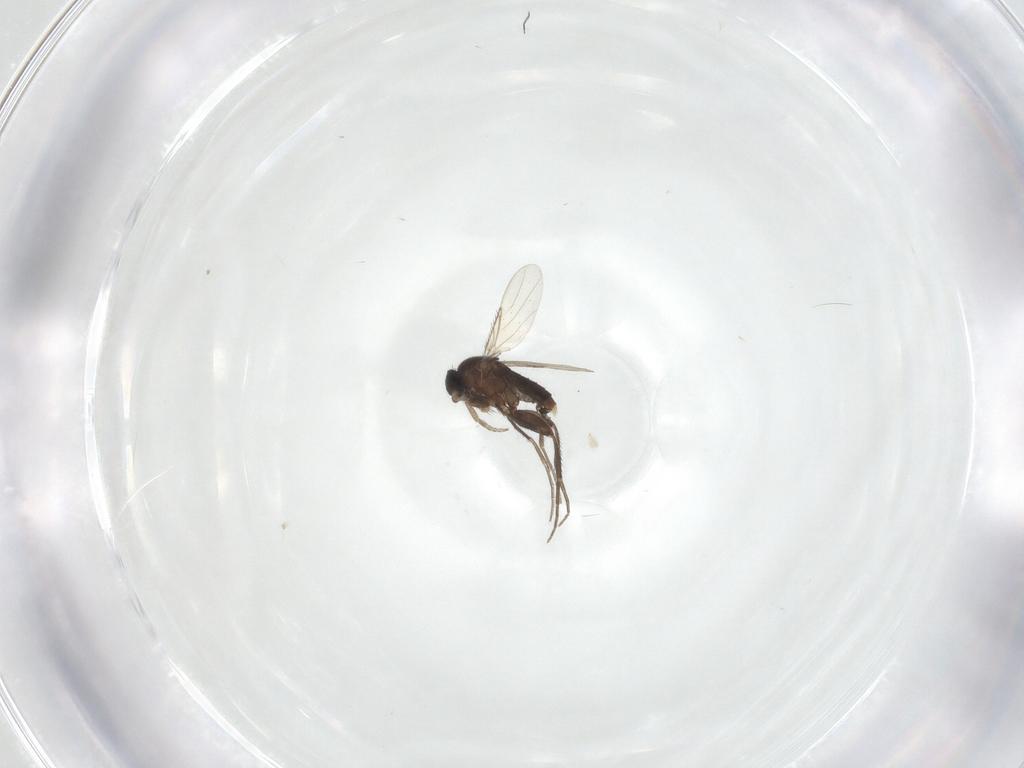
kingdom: Animalia
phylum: Arthropoda
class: Insecta
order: Diptera
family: Phoridae
